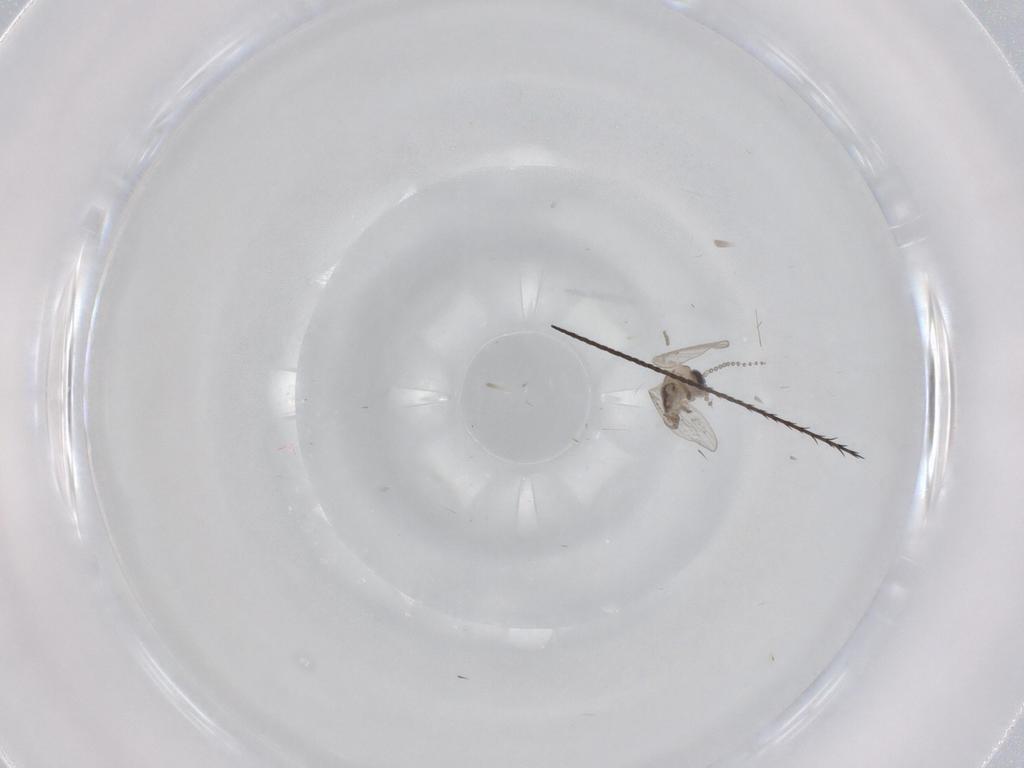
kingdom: Animalia
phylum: Arthropoda
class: Insecta
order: Diptera
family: Psychodidae
